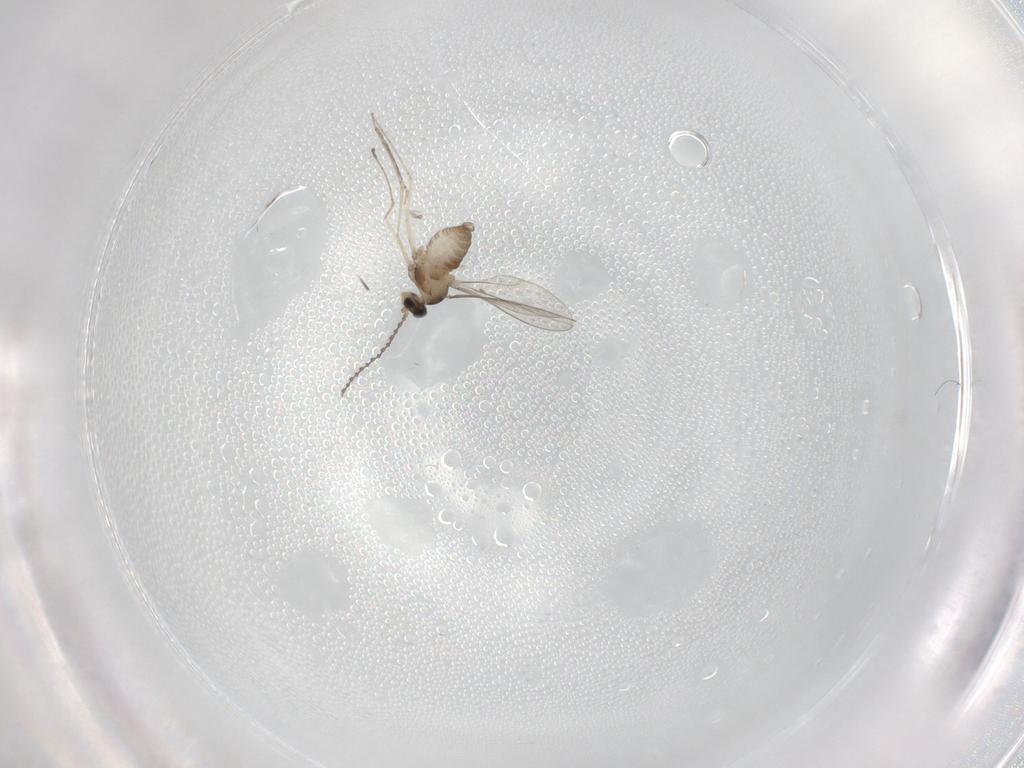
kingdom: Animalia
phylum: Arthropoda
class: Insecta
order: Diptera
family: Cecidomyiidae
